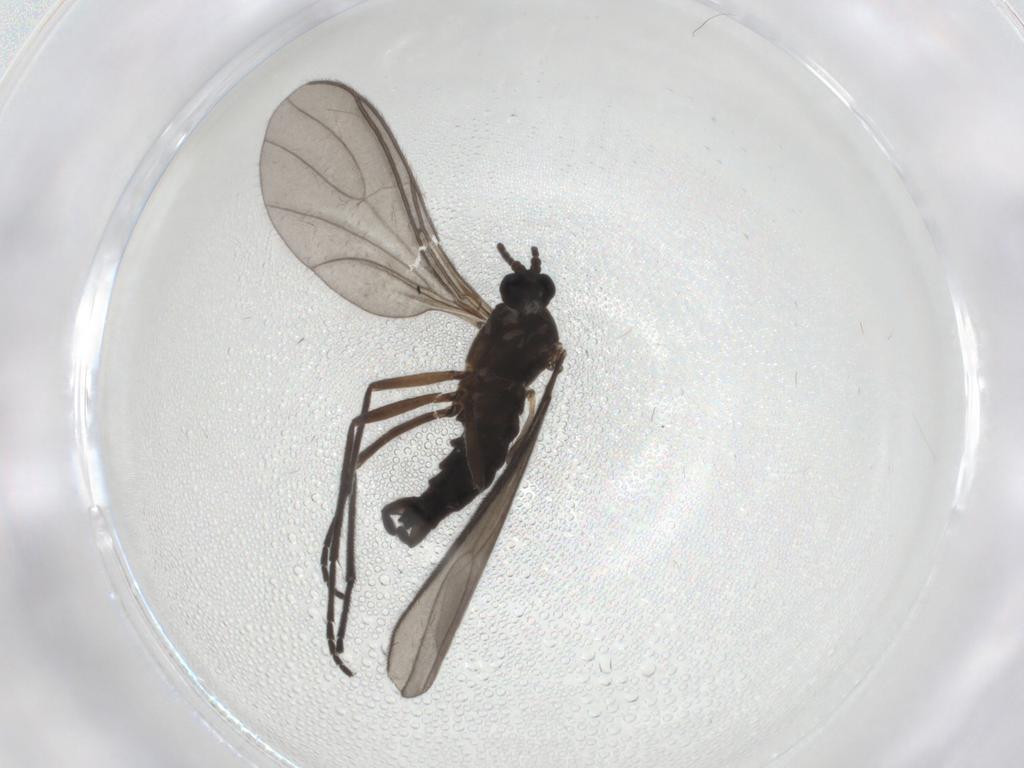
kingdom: Animalia
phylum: Arthropoda
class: Insecta
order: Diptera
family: Sciaridae
